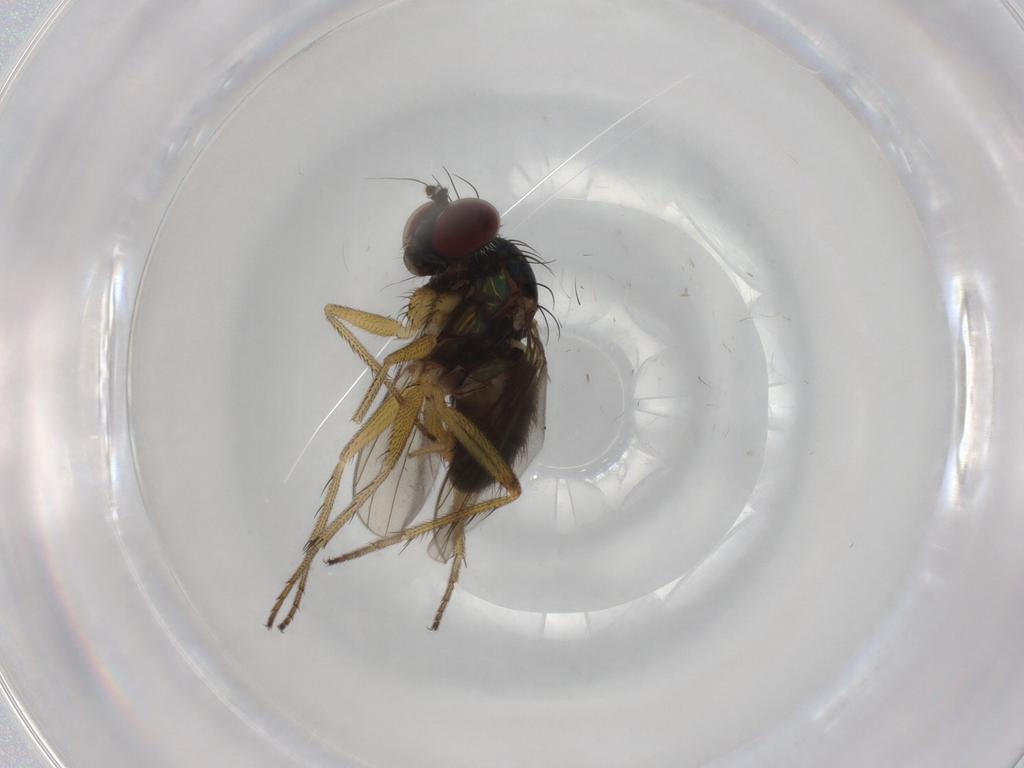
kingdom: Animalia
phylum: Arthropoda
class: Insecta
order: Diptera
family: Dolichopodidae
